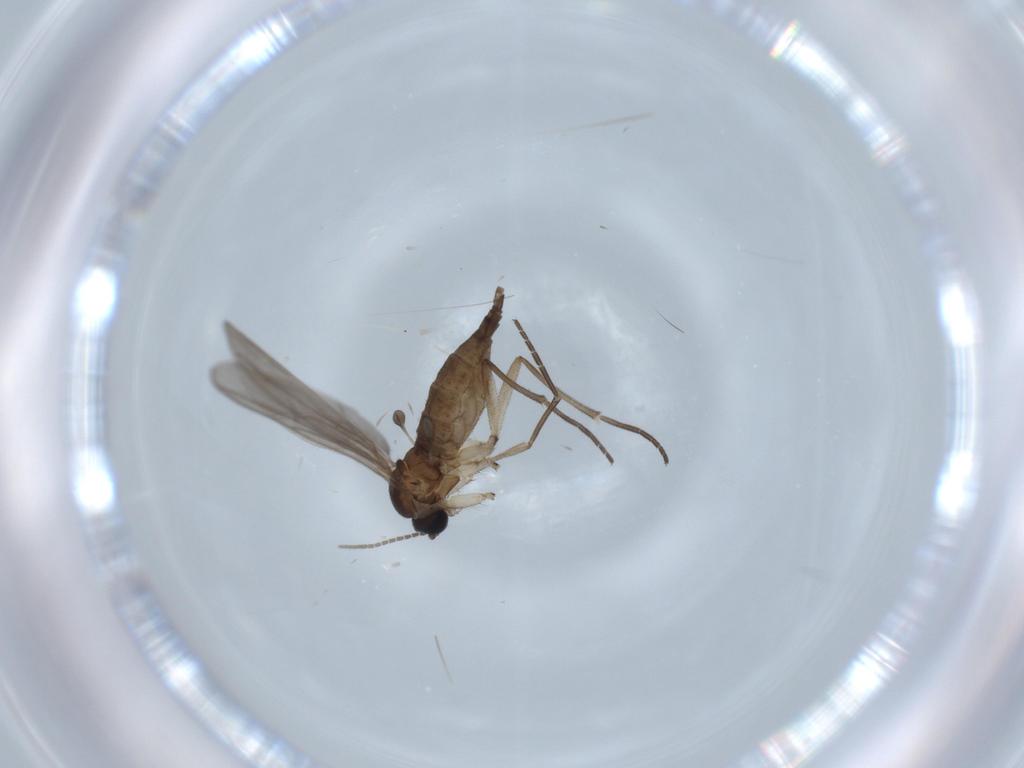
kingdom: Animalia
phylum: Arthropoda
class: Insecta
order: Diptera
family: Sciaridae
